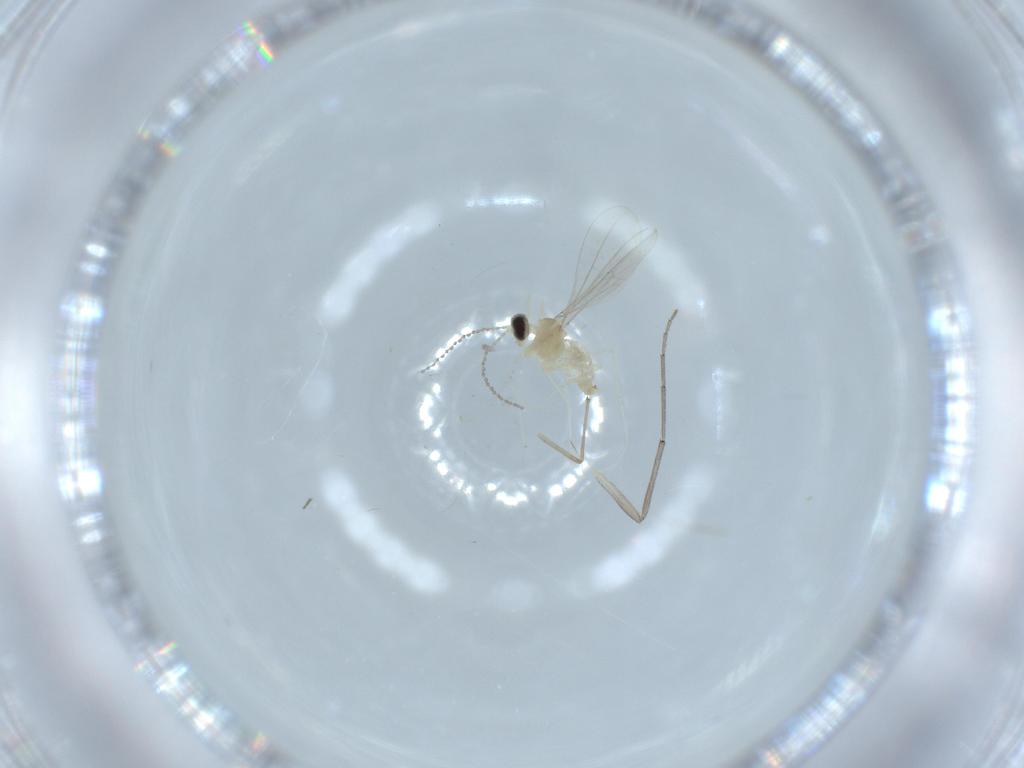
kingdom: Animalia
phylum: Arthropoda
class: Insecta
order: Diptera
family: Cecidomyiidae
